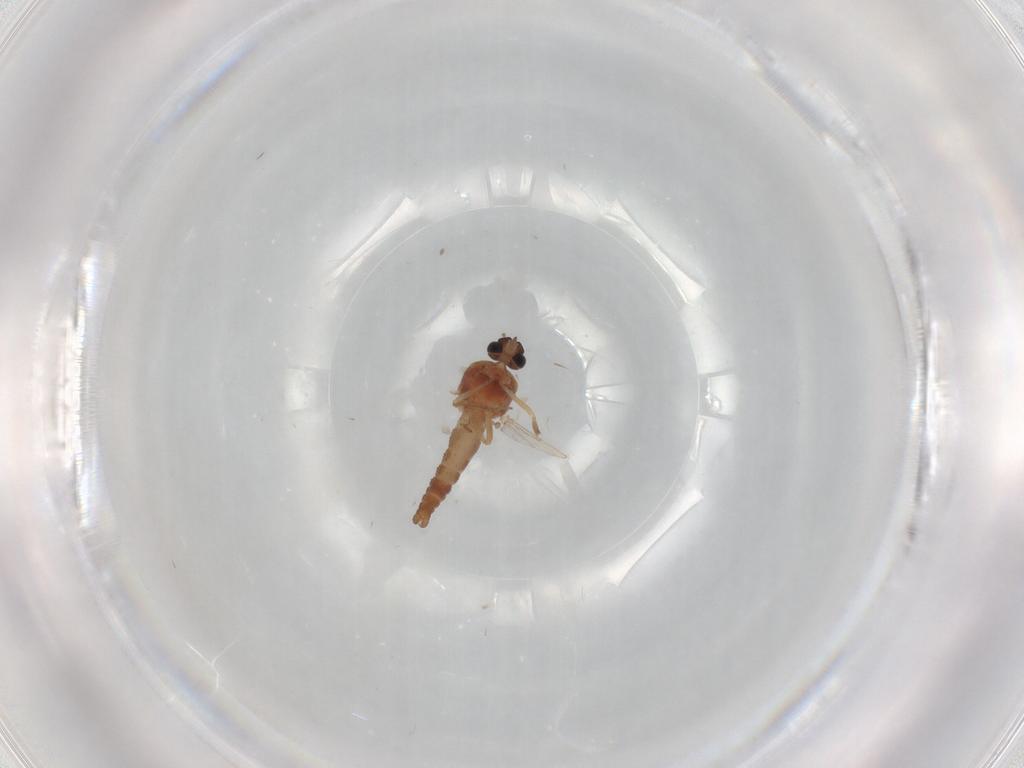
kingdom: Animalia
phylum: Arthropoda
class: Insecta
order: Diptera
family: Ceratopogonidae
